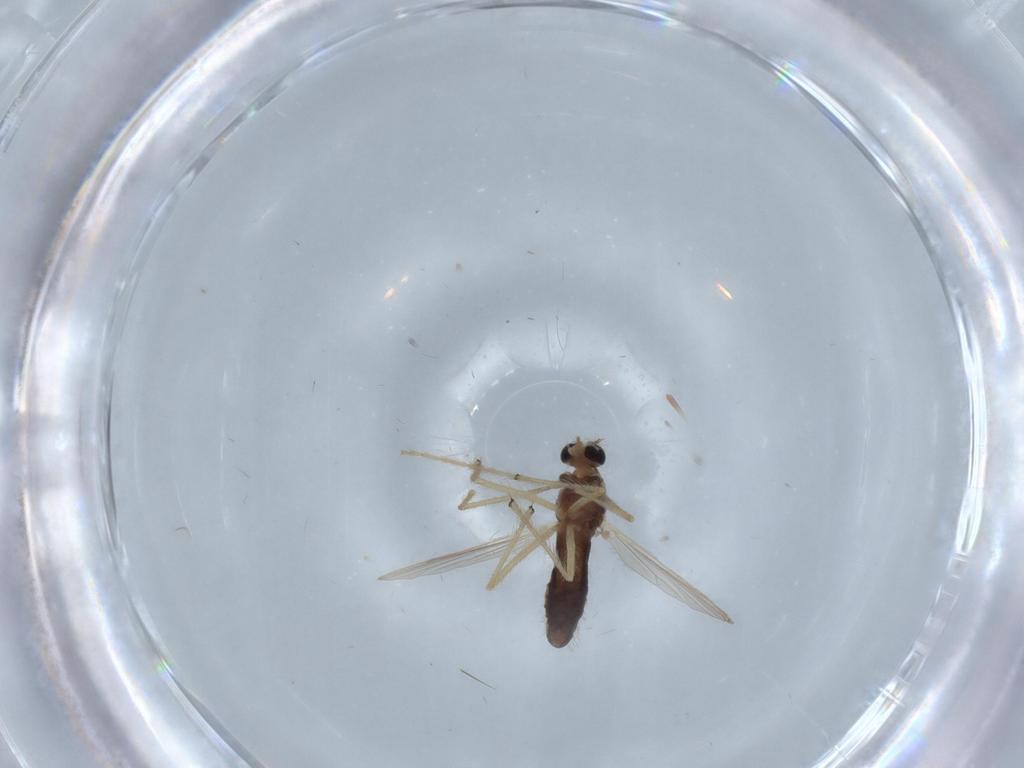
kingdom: Animalia
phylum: Arthropoda
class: Insecta
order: Diptera
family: Chironomidae
